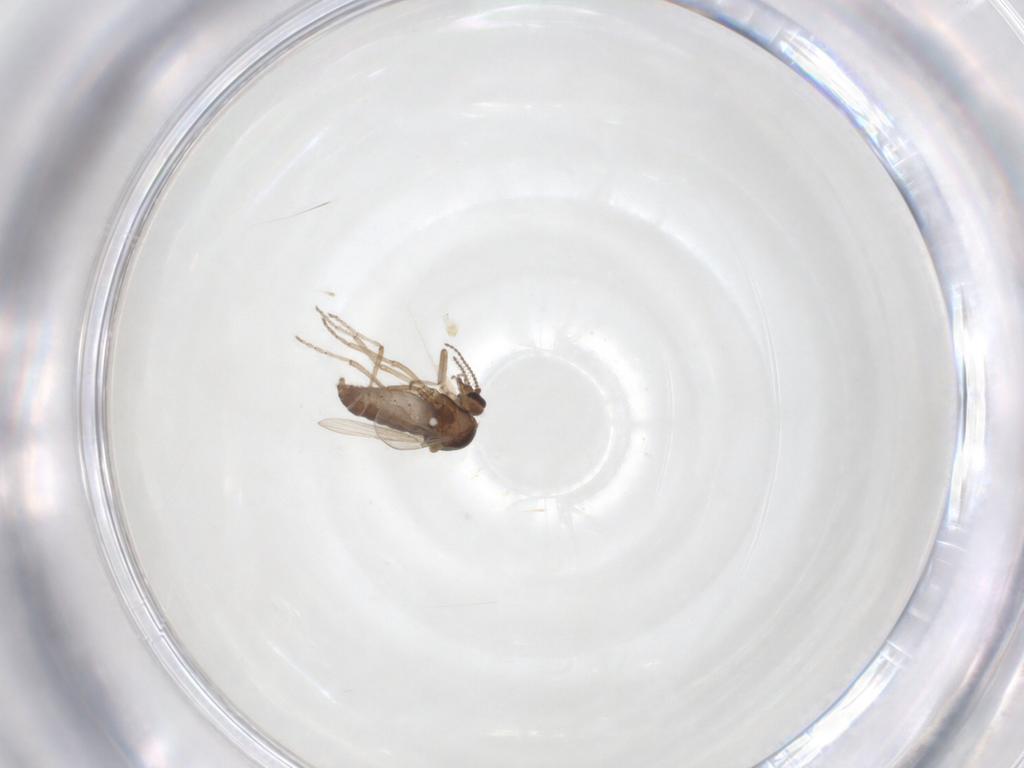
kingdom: Animalia
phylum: Arthropoda
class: Insecta
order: Diptera
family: Ceratopogonidae
